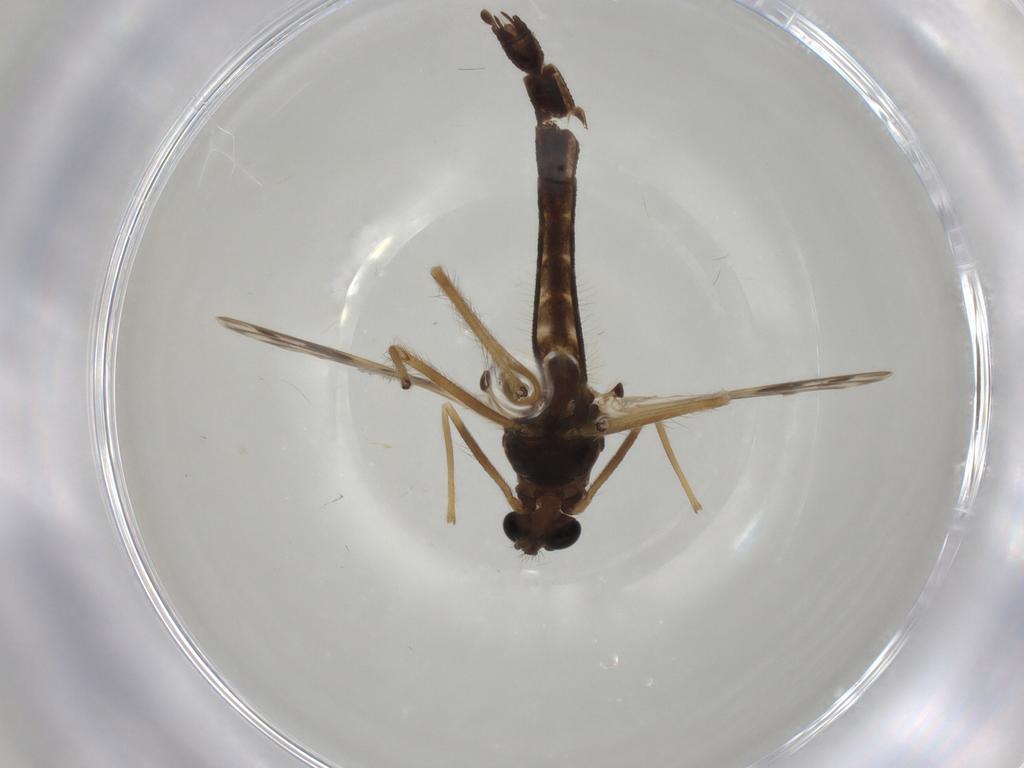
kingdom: Animalia
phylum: Arthropoda
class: Insecta
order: Diptera
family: Chironomidae
